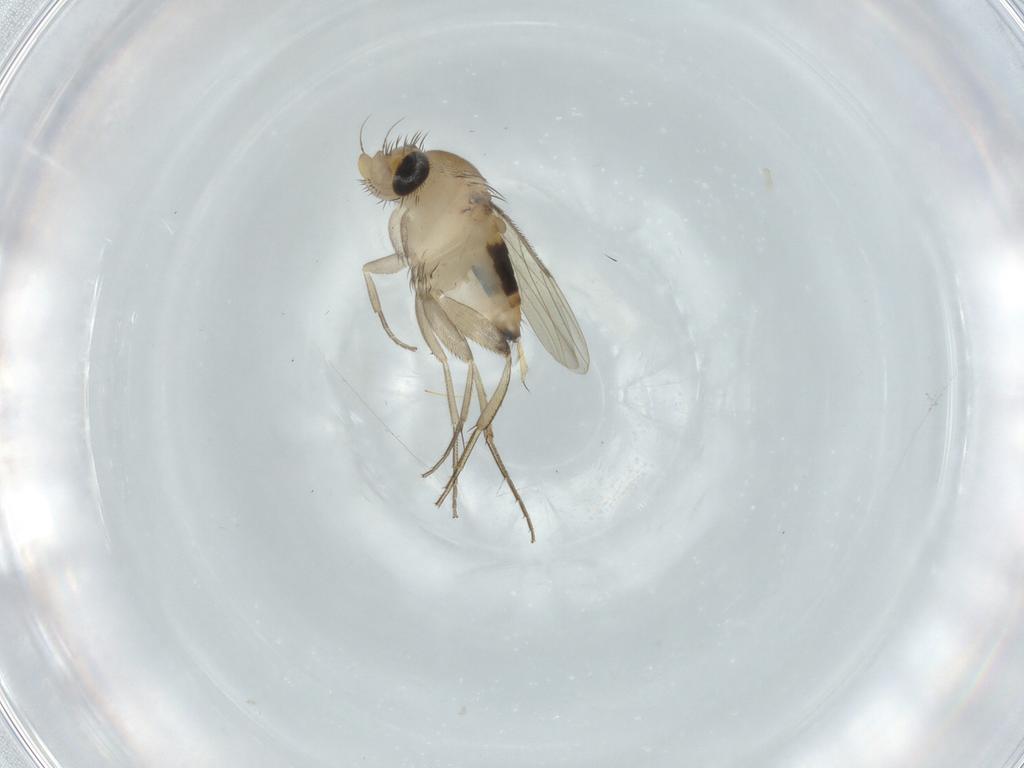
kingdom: Animalia
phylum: Arthropoda
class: Insecta
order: Diptera
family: Phoridae
